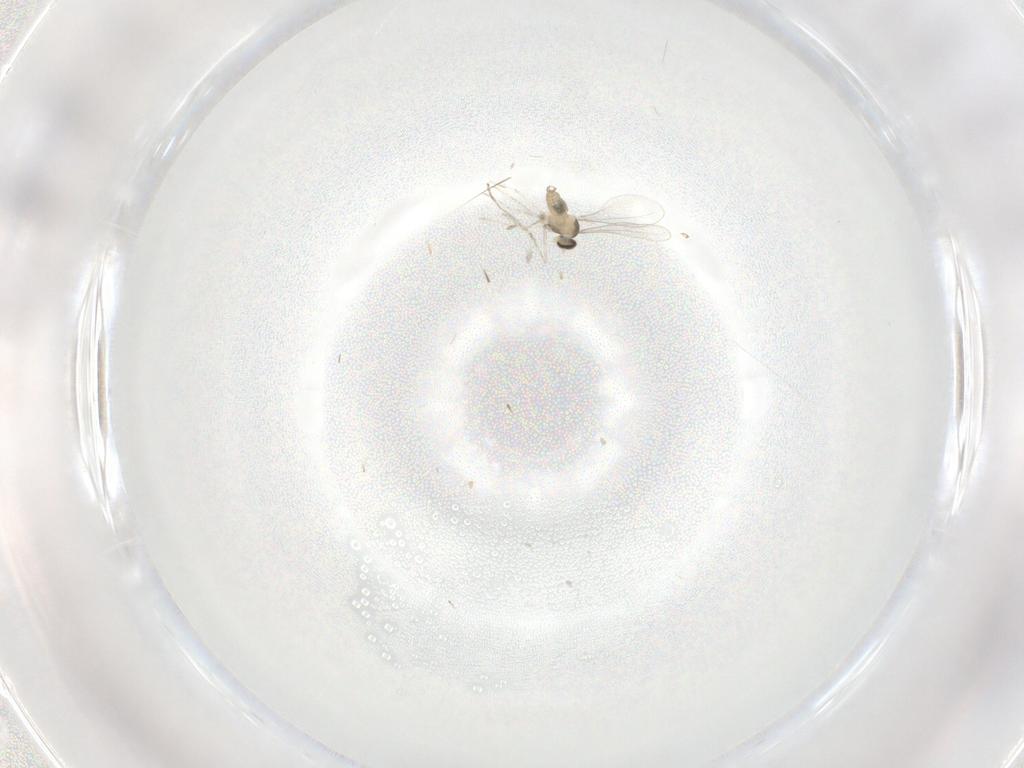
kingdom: Animalia
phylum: Arthropoda
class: Insecta
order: Diptera
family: Cecidomyiidae
